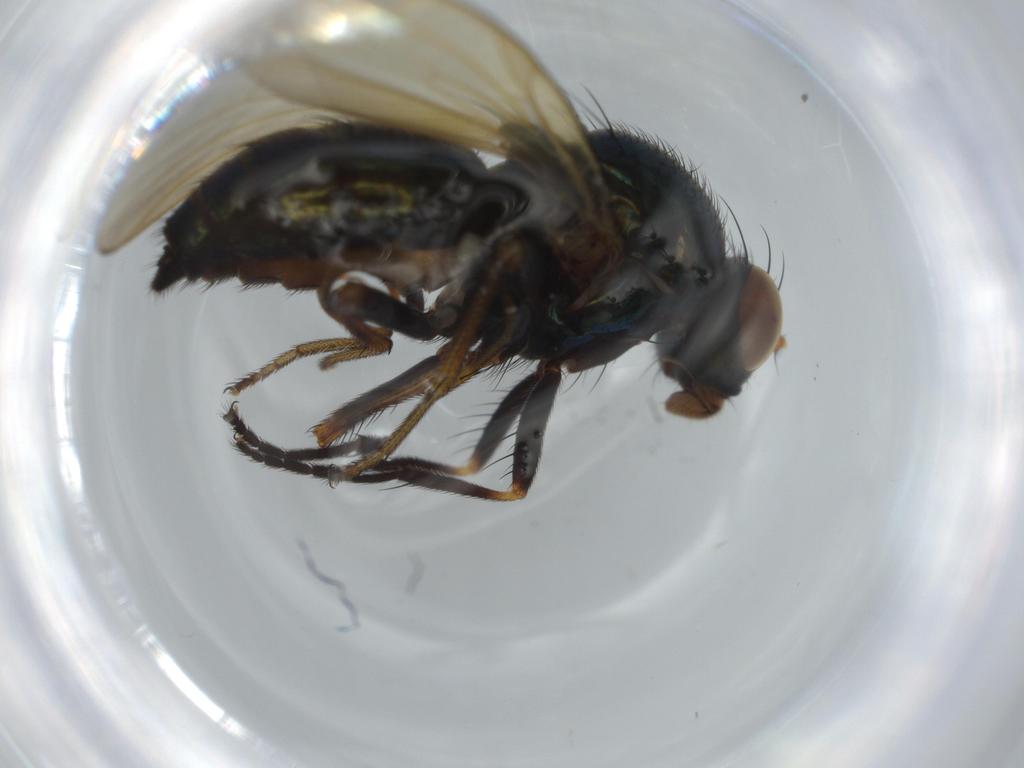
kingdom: Animalia
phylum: Arthropoda
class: Insecta
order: Diptera
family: Lauxaniidae
